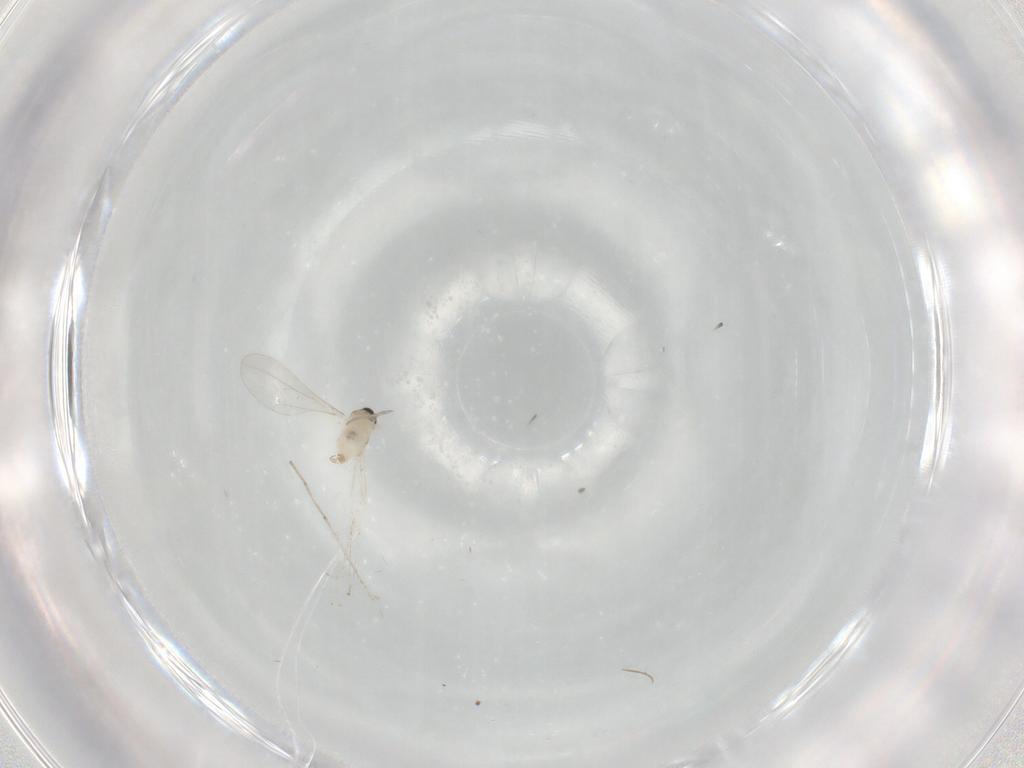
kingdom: Animalia
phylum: Arthropoda
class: Insecta
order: Diptera
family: Cecidomyiidae
